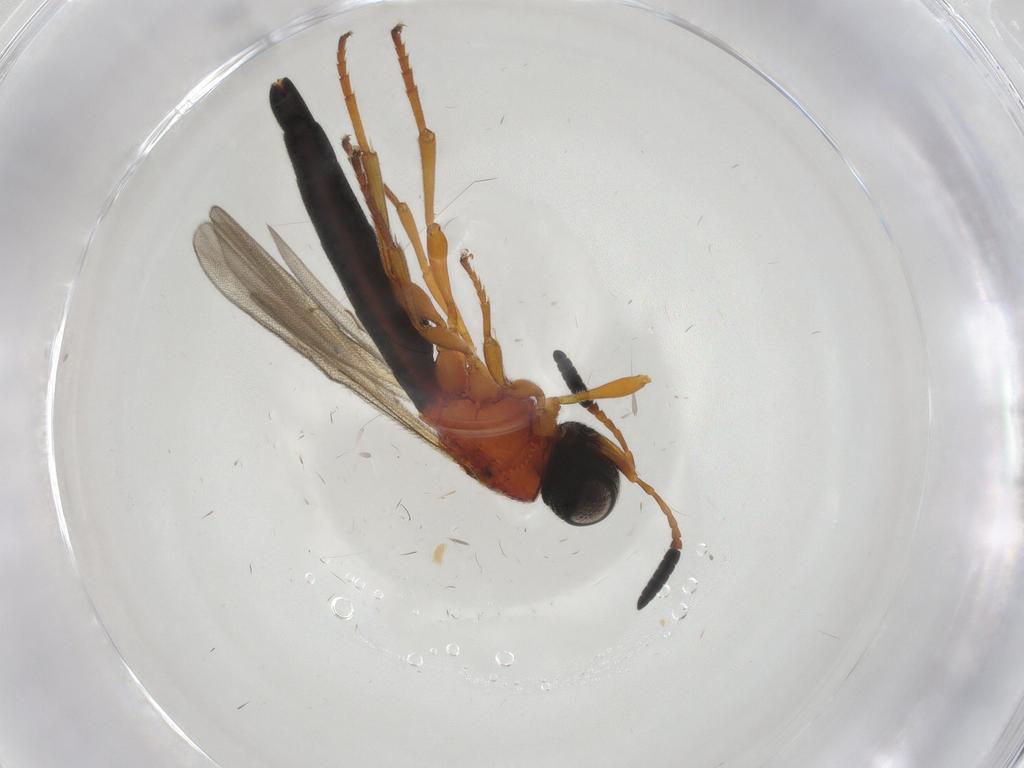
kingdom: Animalia
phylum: Arthropoda
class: Insecta
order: Hymenoptera
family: Scelionidae
